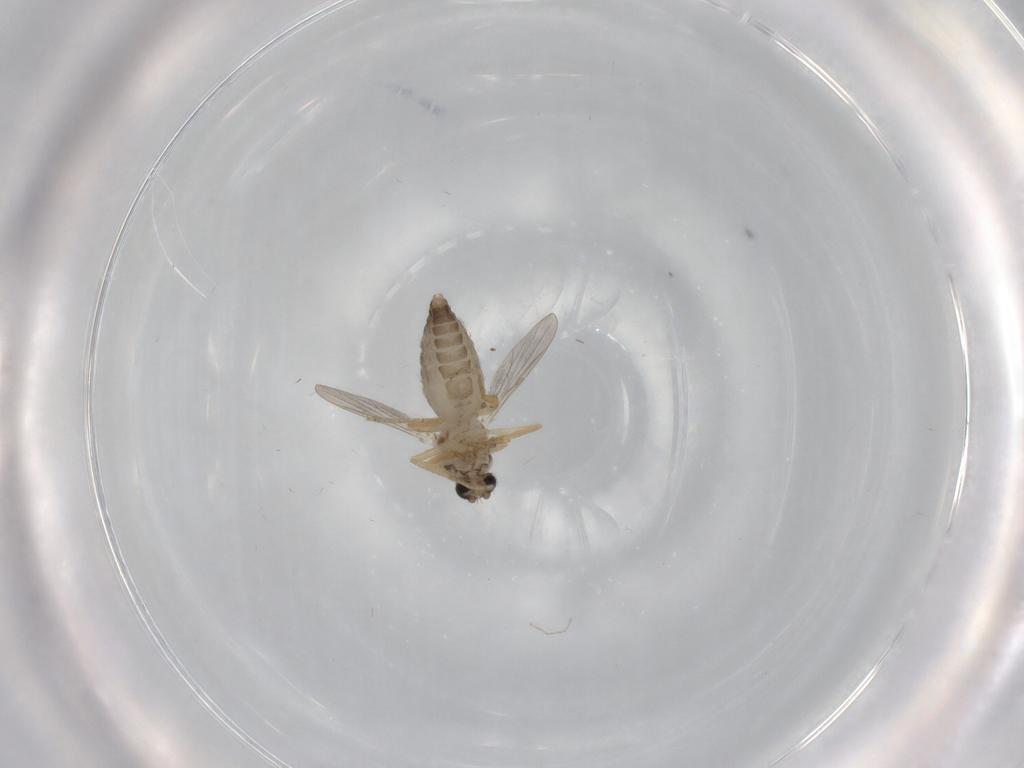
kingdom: Animalia
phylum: Arthropoda
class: Insecta
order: Diptera
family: Ceratopogonidae
